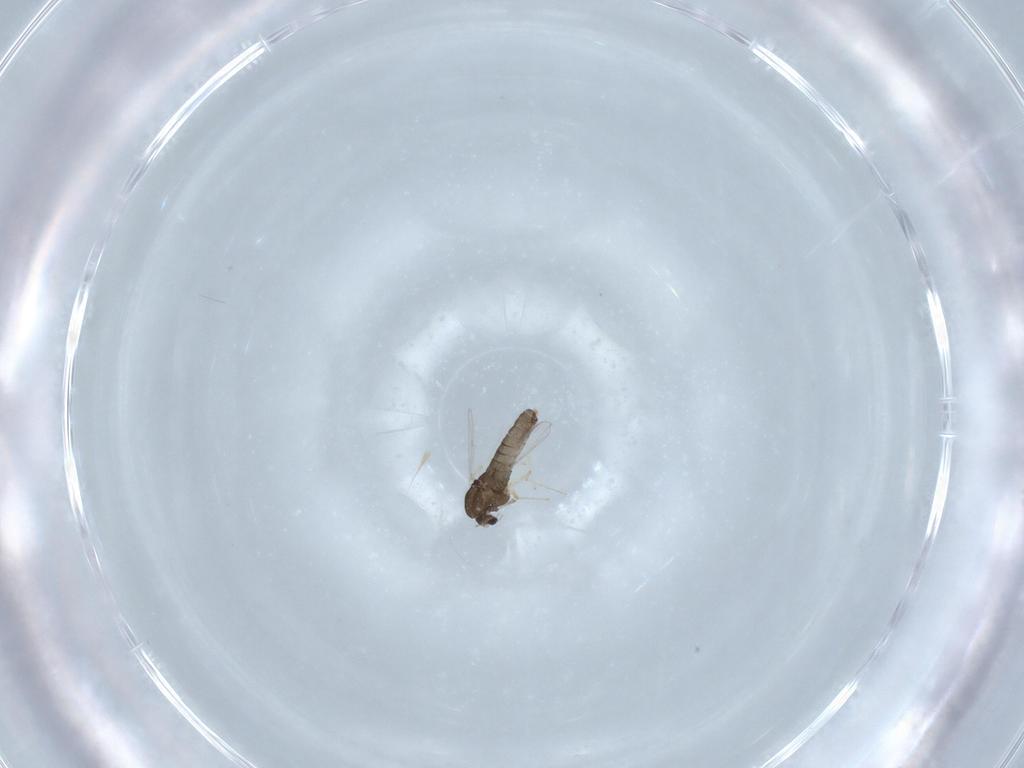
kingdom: Animalia
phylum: Arthropoda
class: Insecta
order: Diptera
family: Chironomidae
